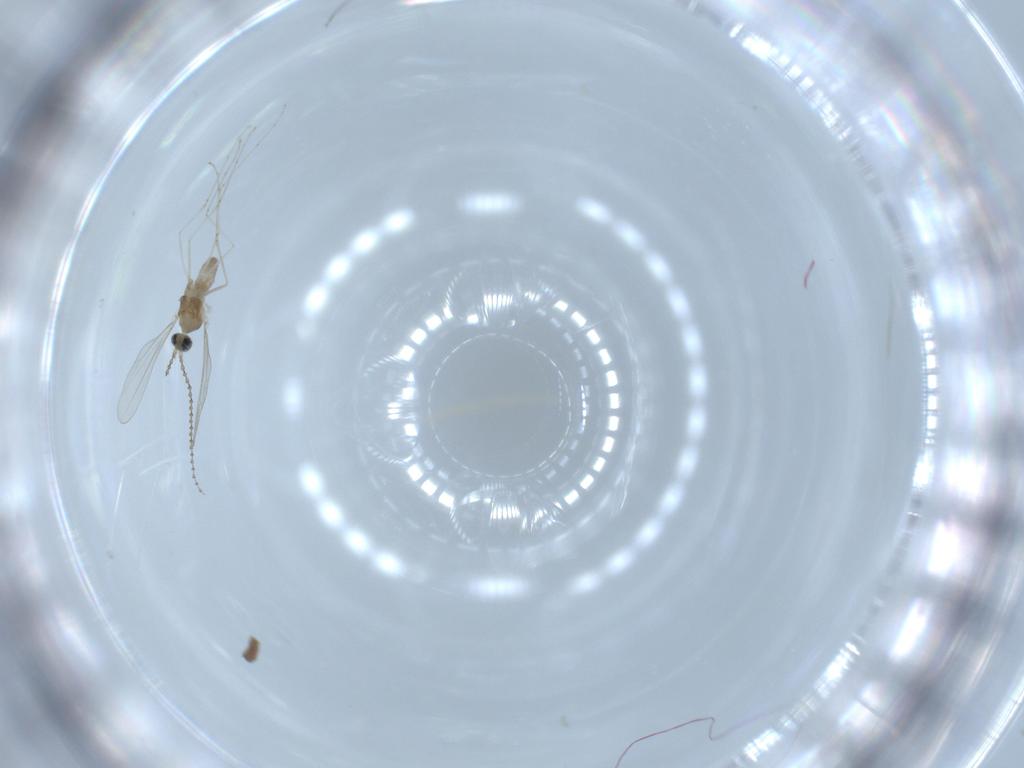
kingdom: Animalia
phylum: Arthropoda
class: Insecta
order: Diptera
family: Cecidomyiidae
